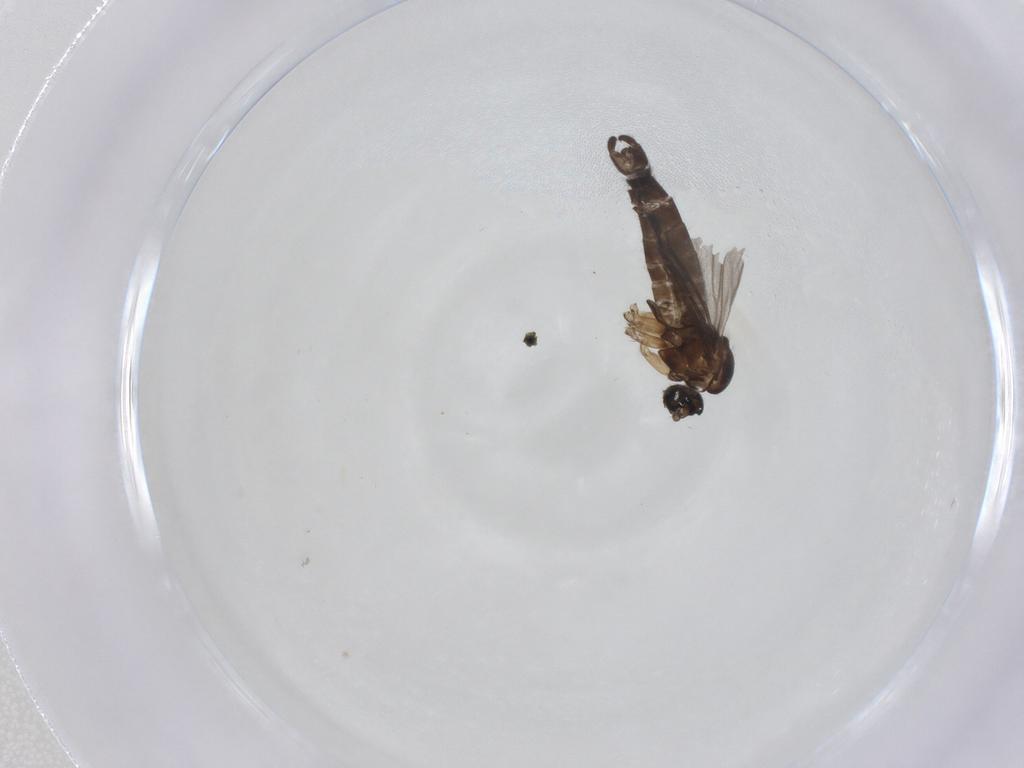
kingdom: Animalia
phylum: Arthropoda
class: Insecta
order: Diptera
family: Sciaridae
